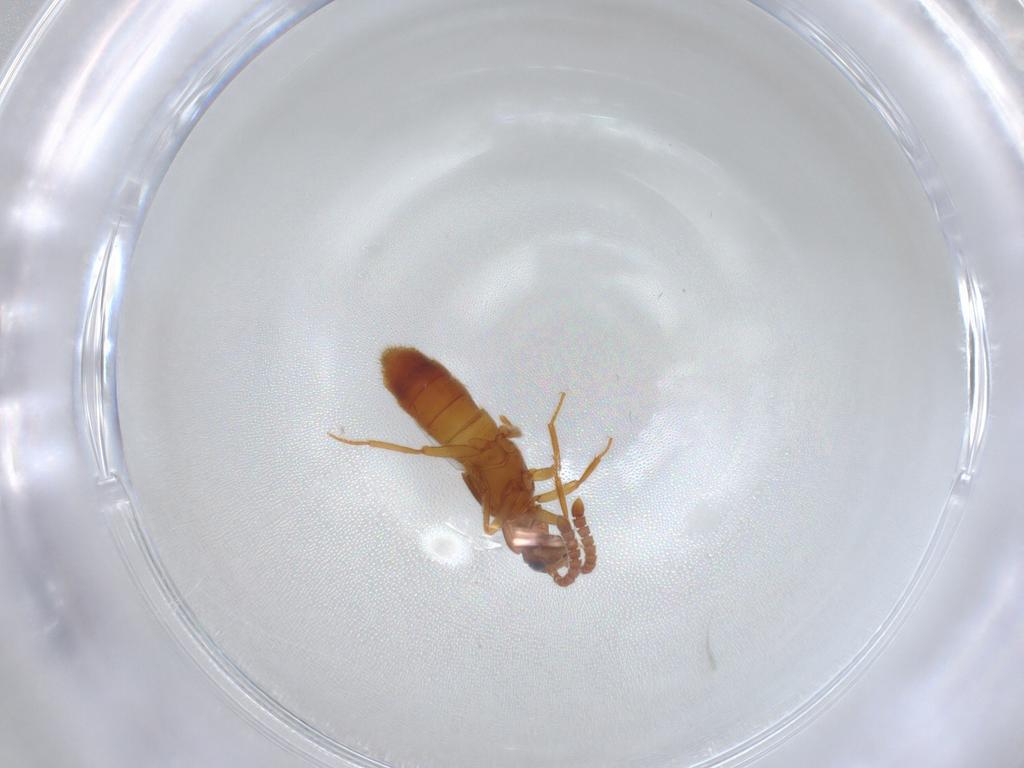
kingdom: Animalia
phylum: Arthropoda
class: Insecta
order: Coleoptera
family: Staphylinidae
